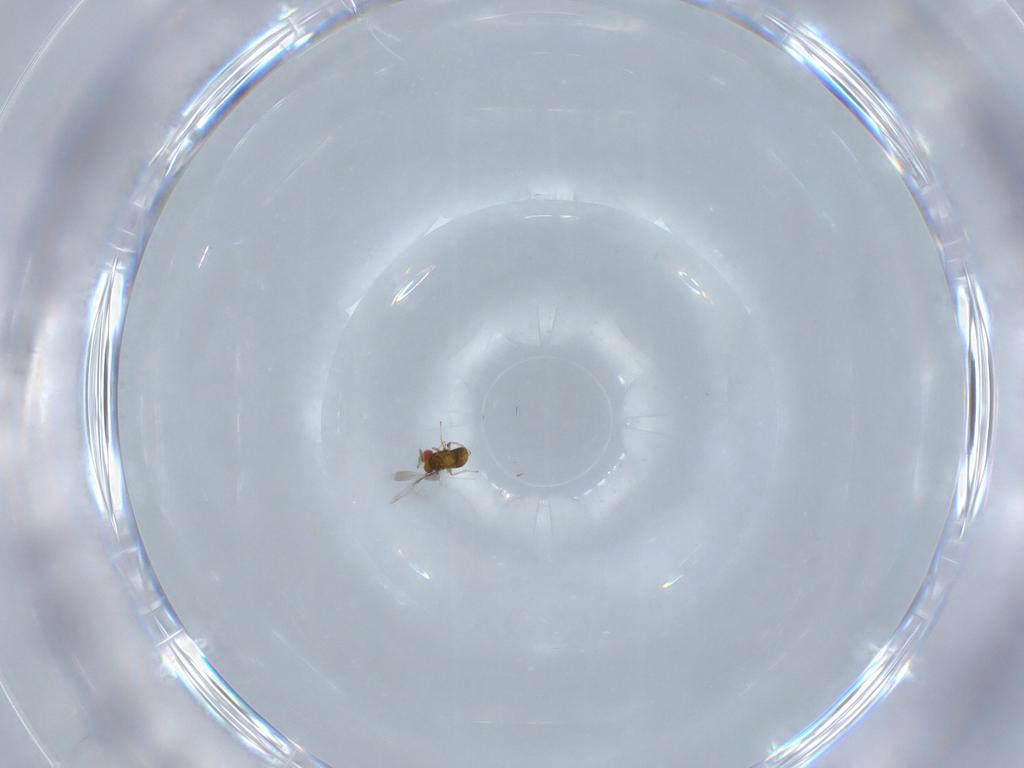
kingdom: Animalia
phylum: Arthropoda
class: Insecta
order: Hymenoptera
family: Trichogrammatidae
